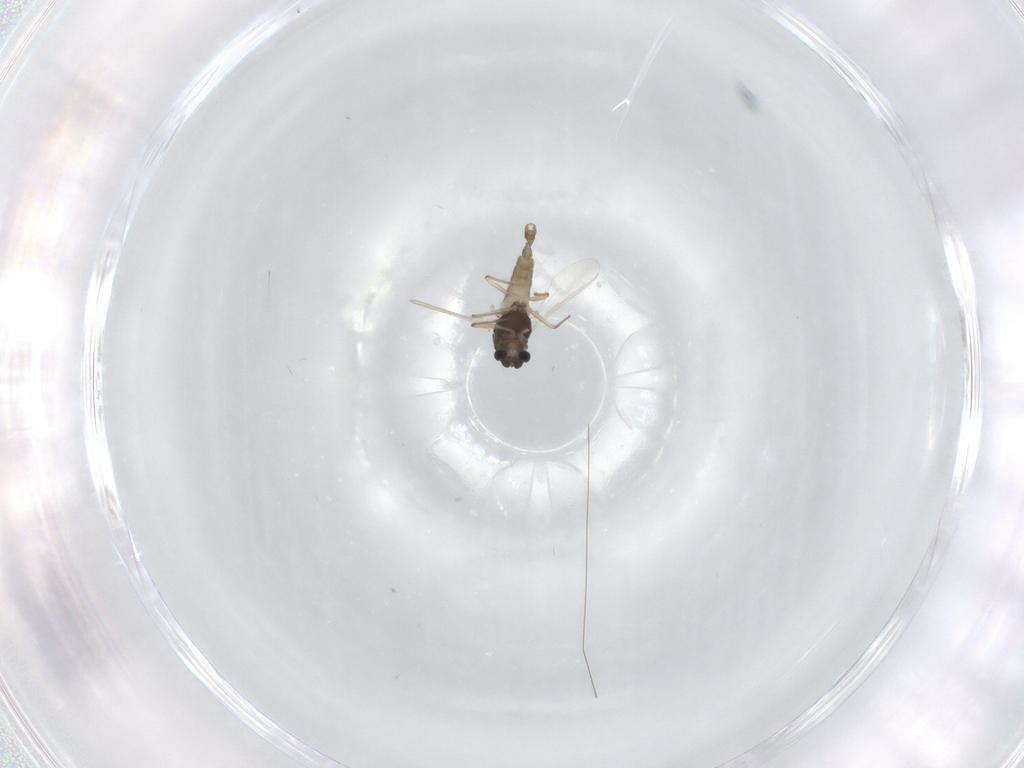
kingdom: Animalia
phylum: Arthropoda
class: Insecta
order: Diptera
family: Chironomidae
